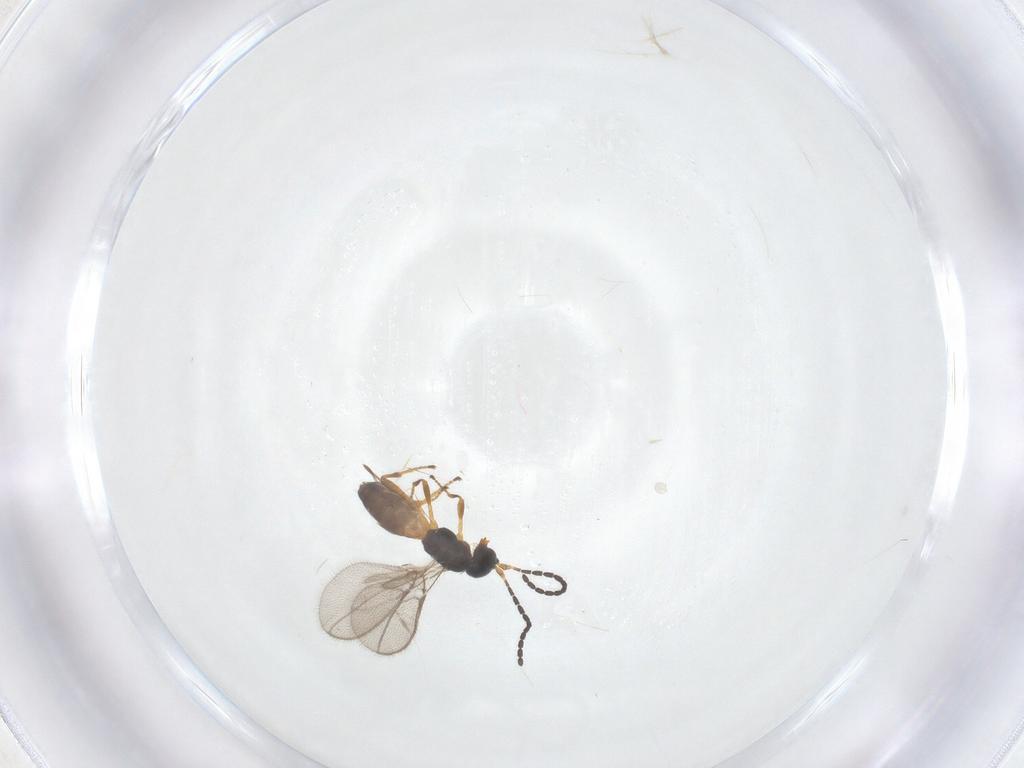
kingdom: Animalia
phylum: Arthropoda
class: Insecta
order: Hymenoptera
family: Braconidae
